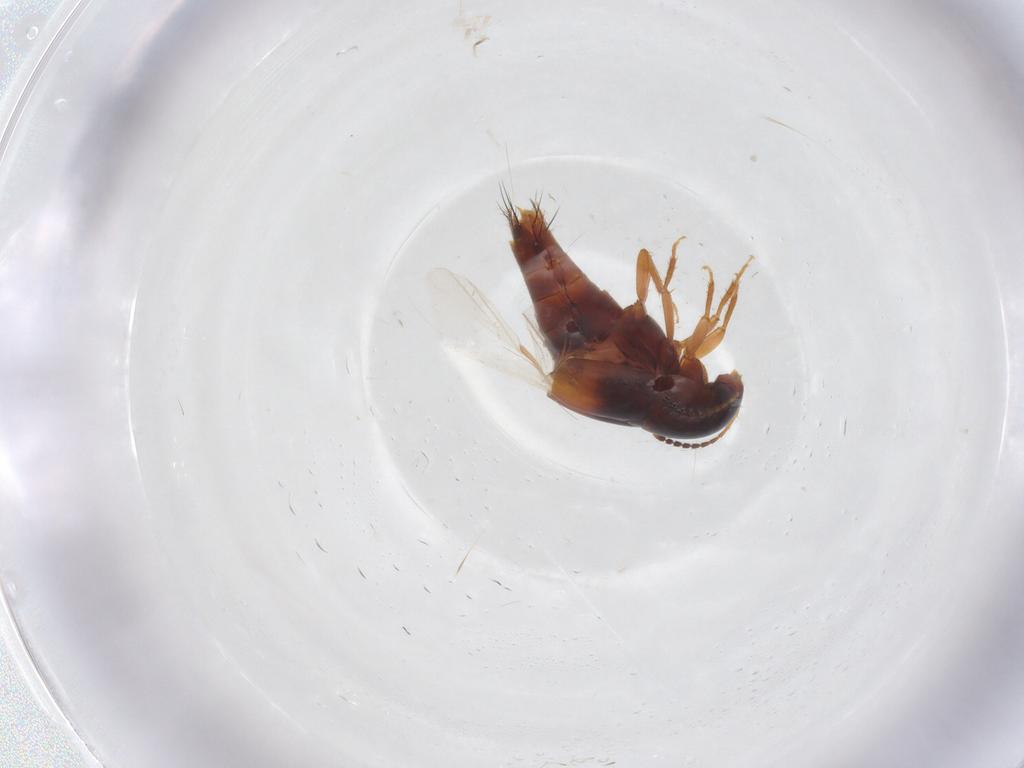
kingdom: Animalia
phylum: Arthropoda
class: Insecta
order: Coleoptera
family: Staphylinidae
